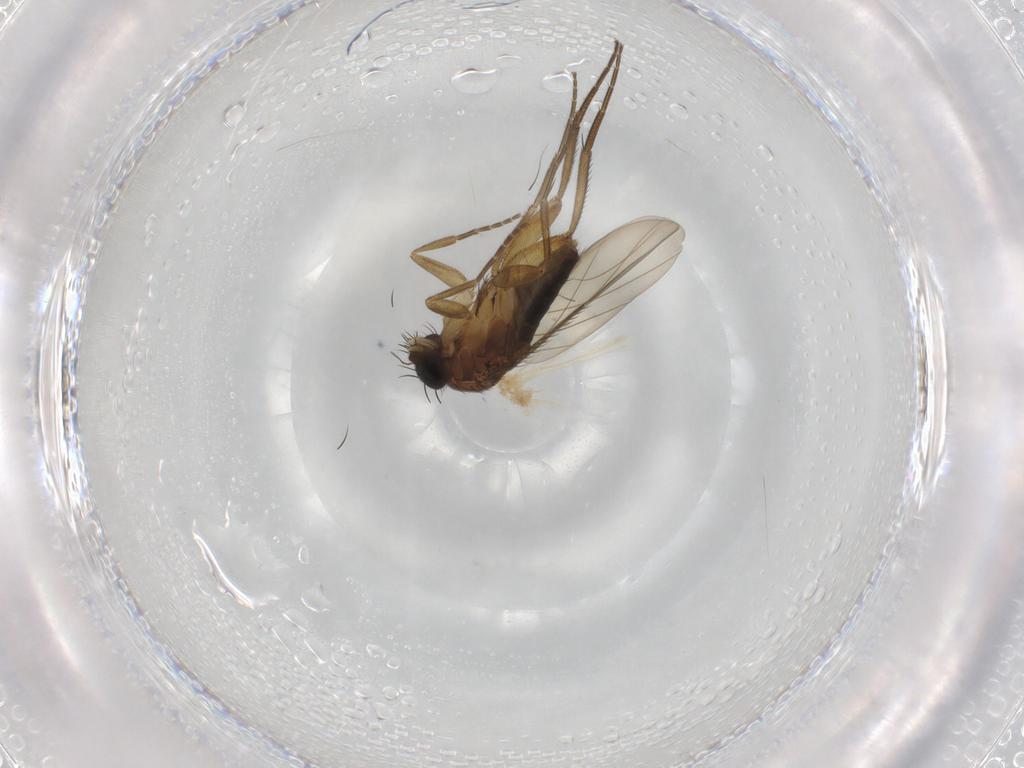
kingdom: Animalia
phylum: Arthropoda
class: Insecta
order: Diptera
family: Phoridae
